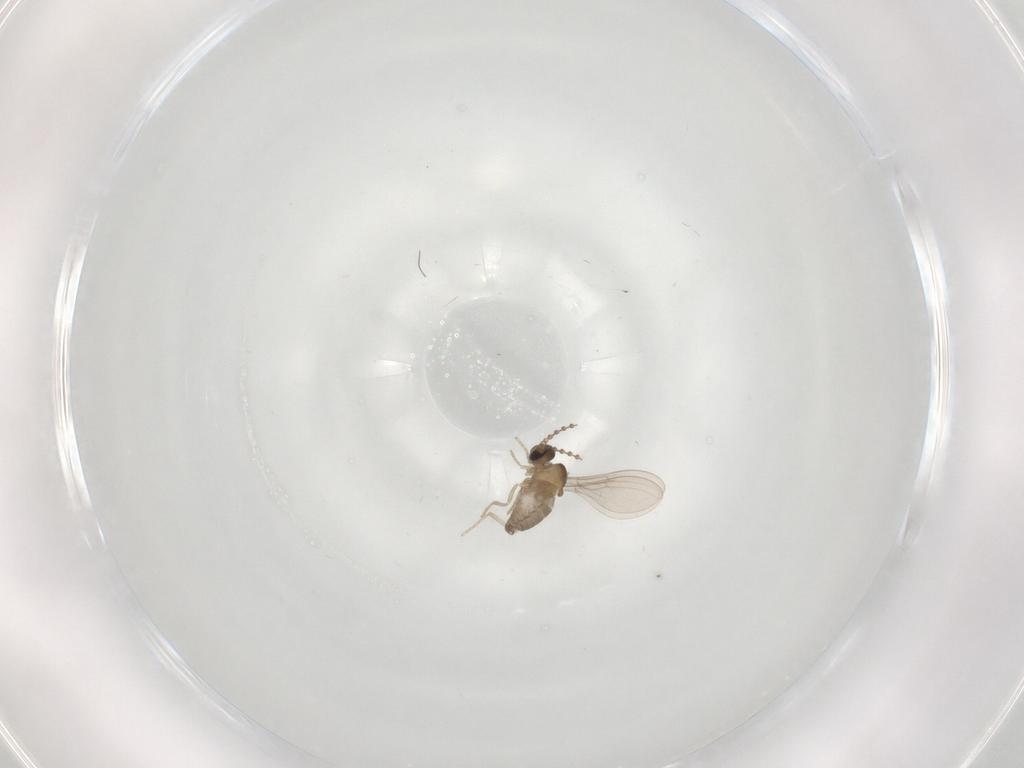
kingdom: Animalia
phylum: Arthropoda
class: Insecta
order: Diptera
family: Cecidomyiidae
